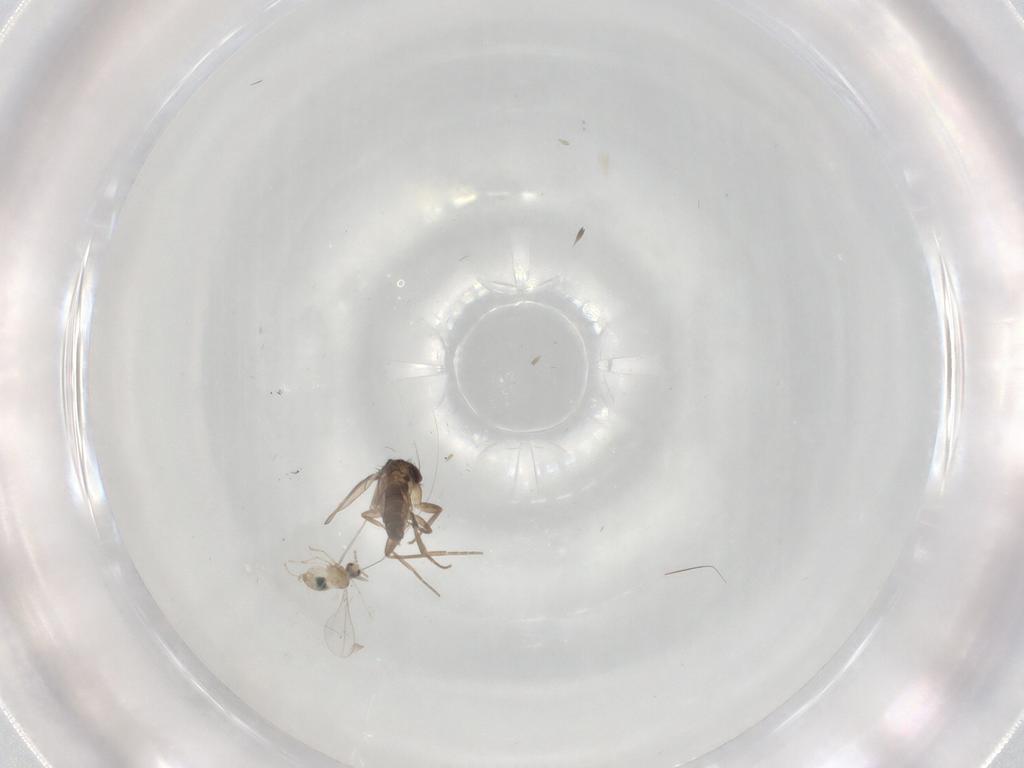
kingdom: Animalia
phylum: Arthropoda
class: Insecta
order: Diptera
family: Phoridae
